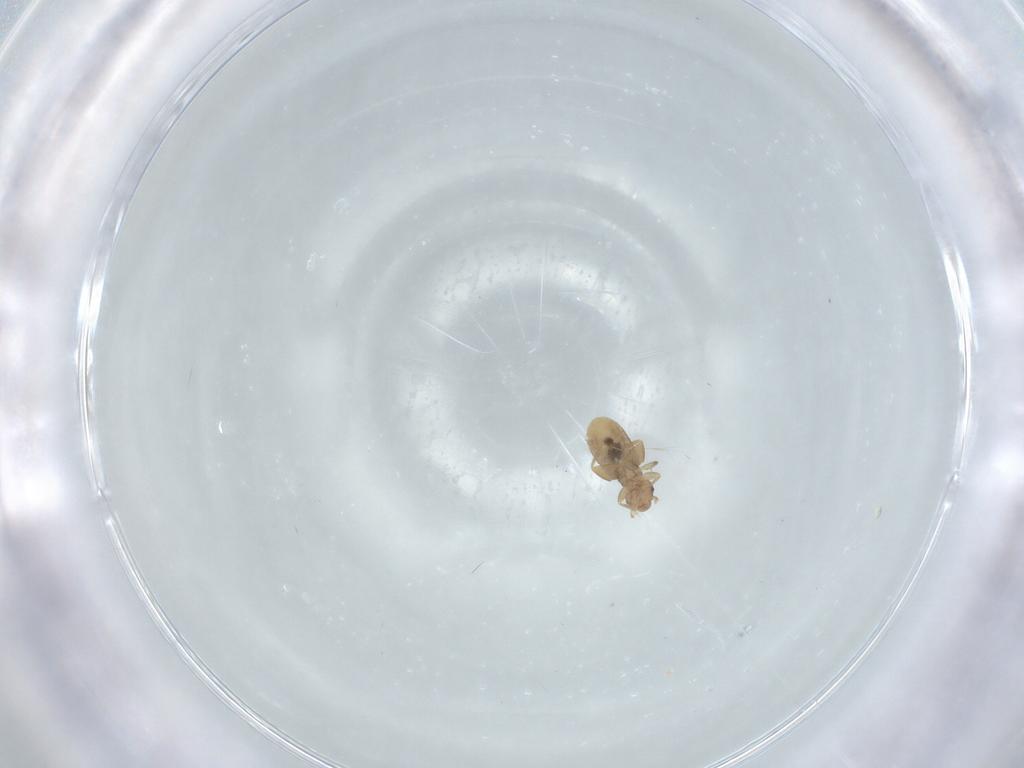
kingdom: Animalia
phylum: Arthropoda
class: Insecta
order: Psocodea
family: Liposcelididae
